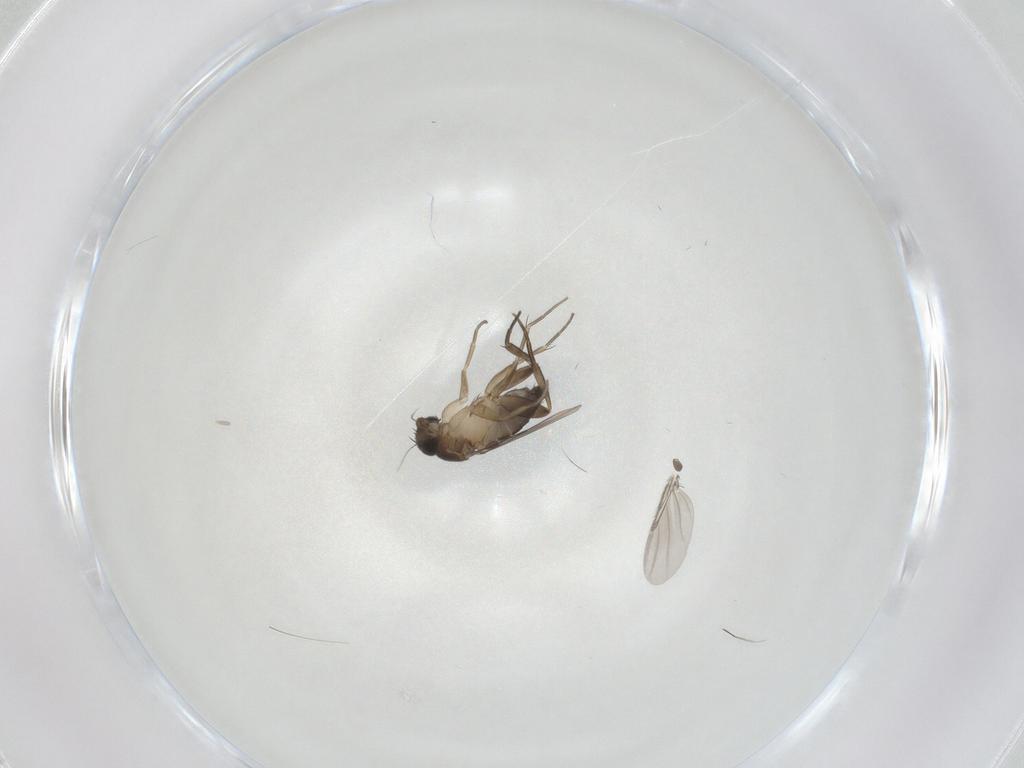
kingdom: Animalia
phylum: Arthropoda
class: Insecta
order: Diptera
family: Phoridae
